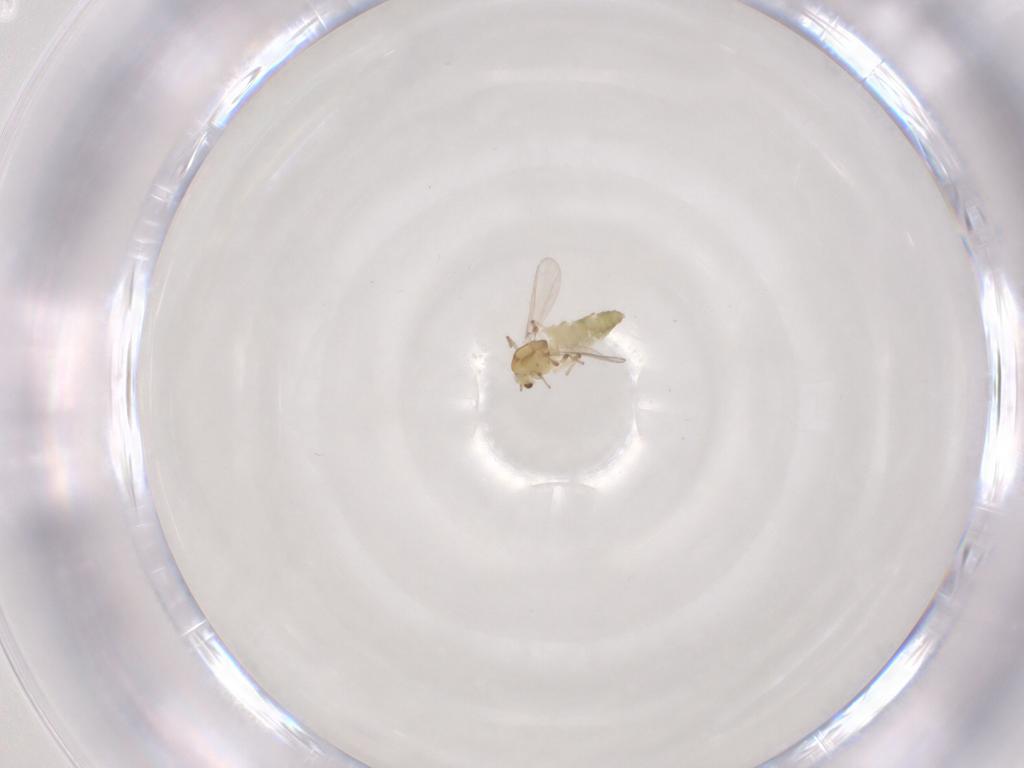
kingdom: Animalia
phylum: Arthropoda
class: Insecta
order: Diptera
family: Chironomidae
